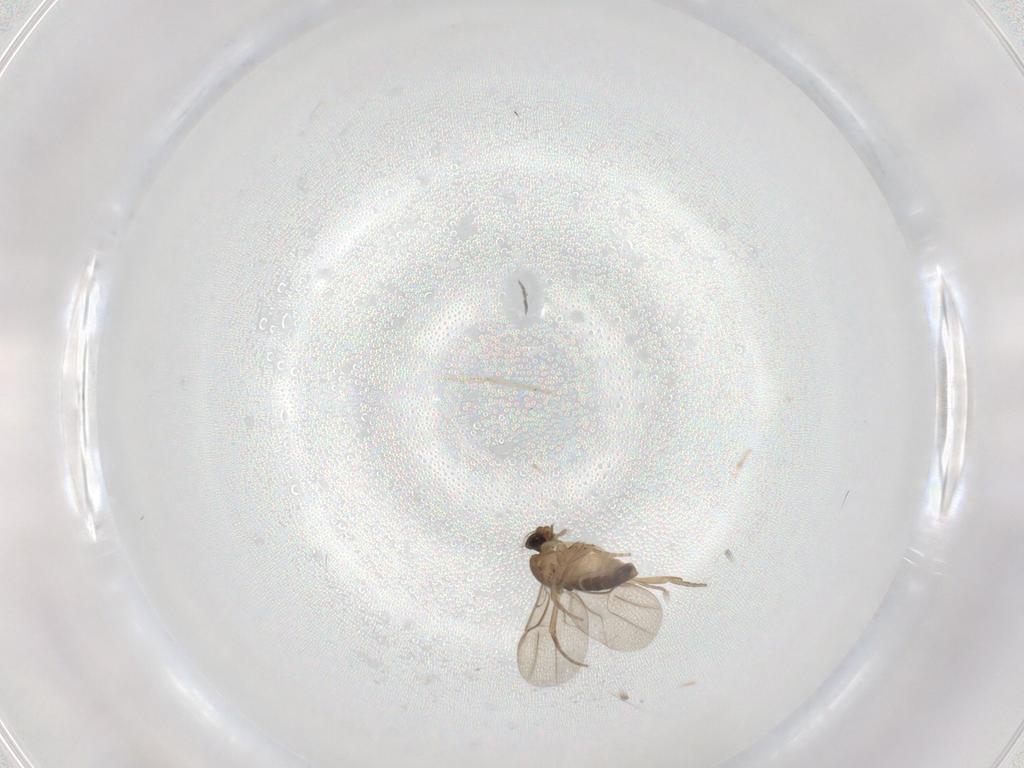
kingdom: Animalia
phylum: Arthropoda
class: Insecta
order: Diptera
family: Phoridae
